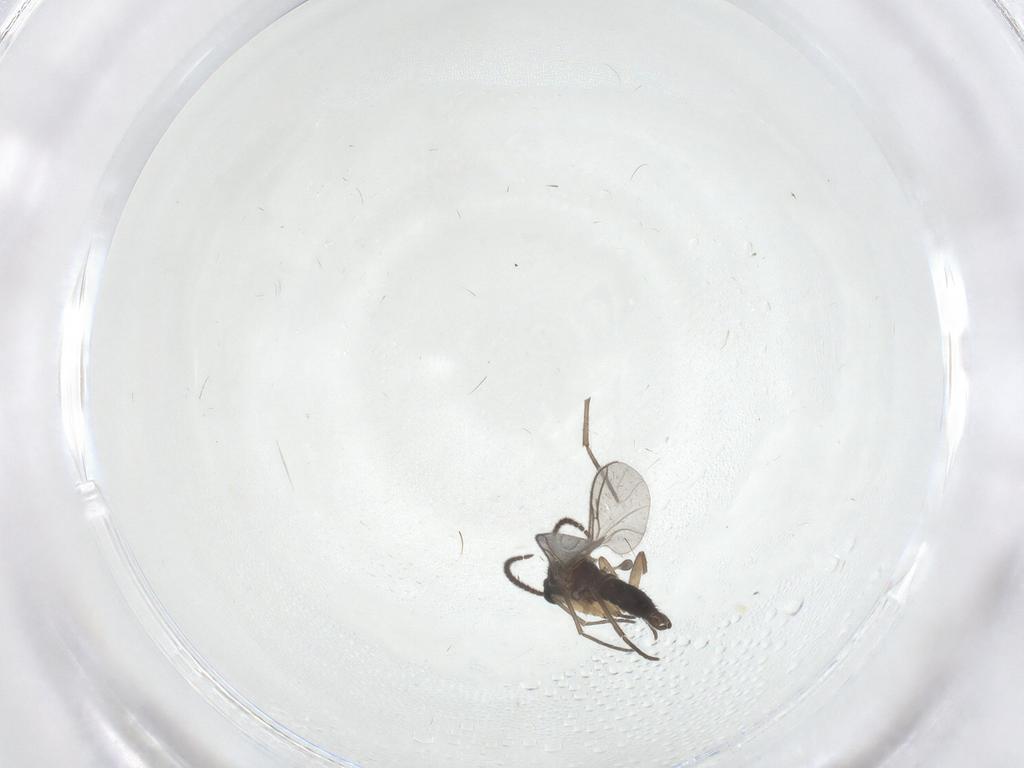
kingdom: Animalia
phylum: Arthropoda
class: Insecta
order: Diptera
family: Sciaridae
